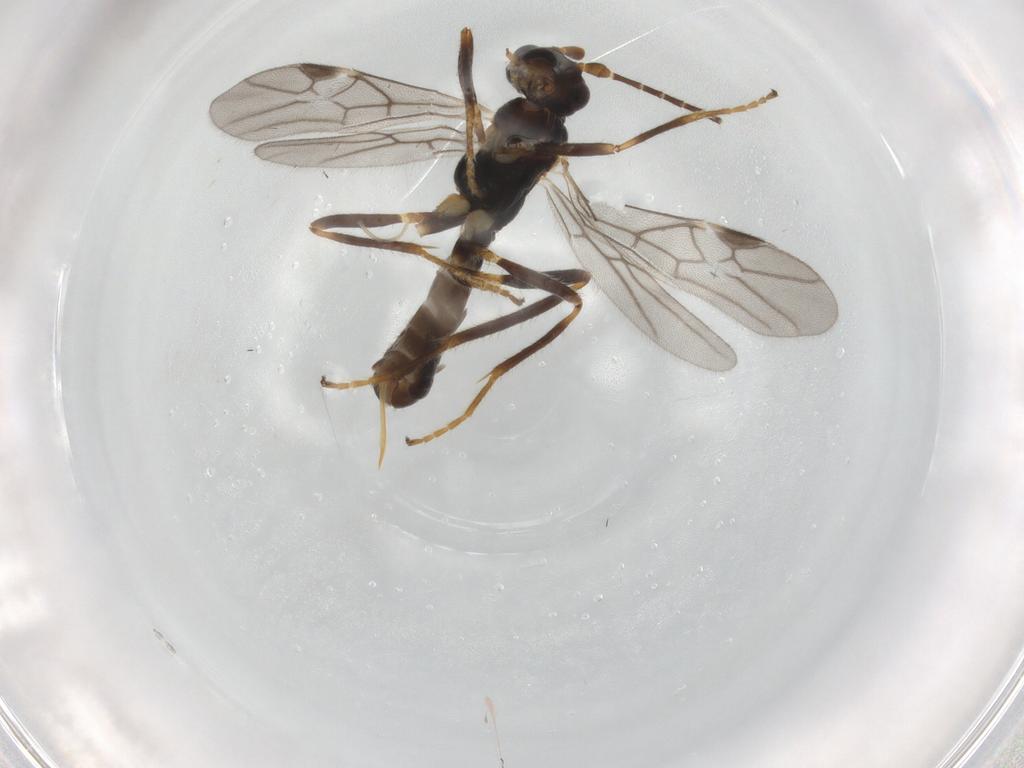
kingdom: Animalia
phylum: Arthropoda
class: Insecta
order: Hymenoptera
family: Braconidae
